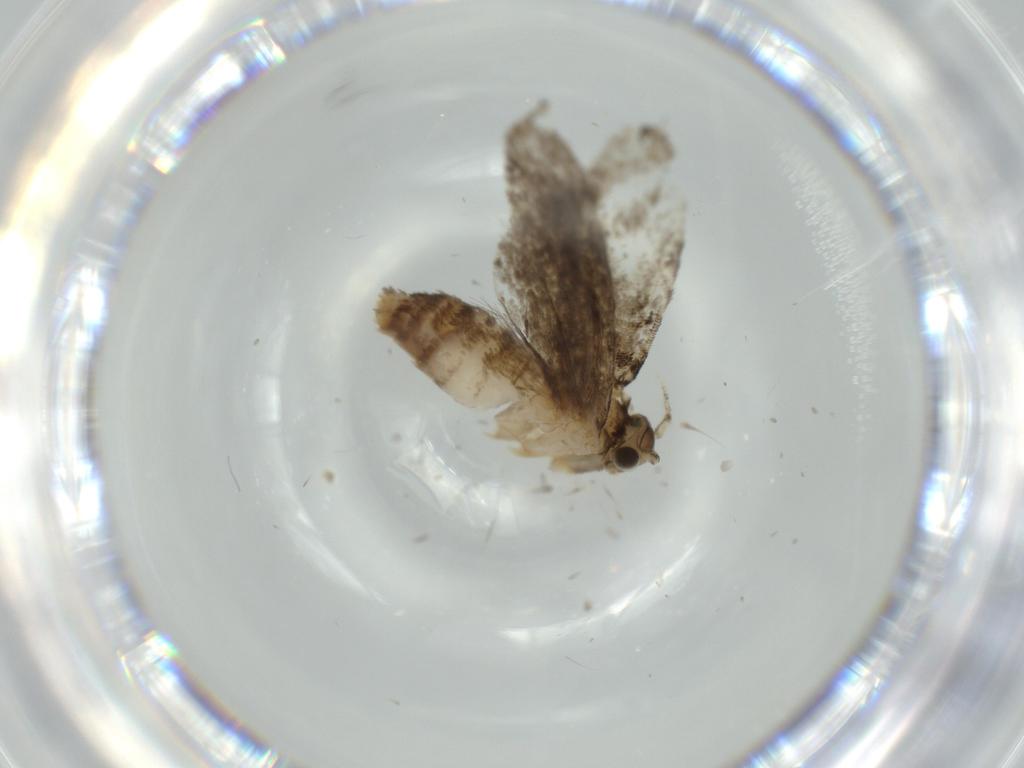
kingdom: Animalia
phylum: Arthropoda
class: Insecta
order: Lepidoptera
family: Tineidae
